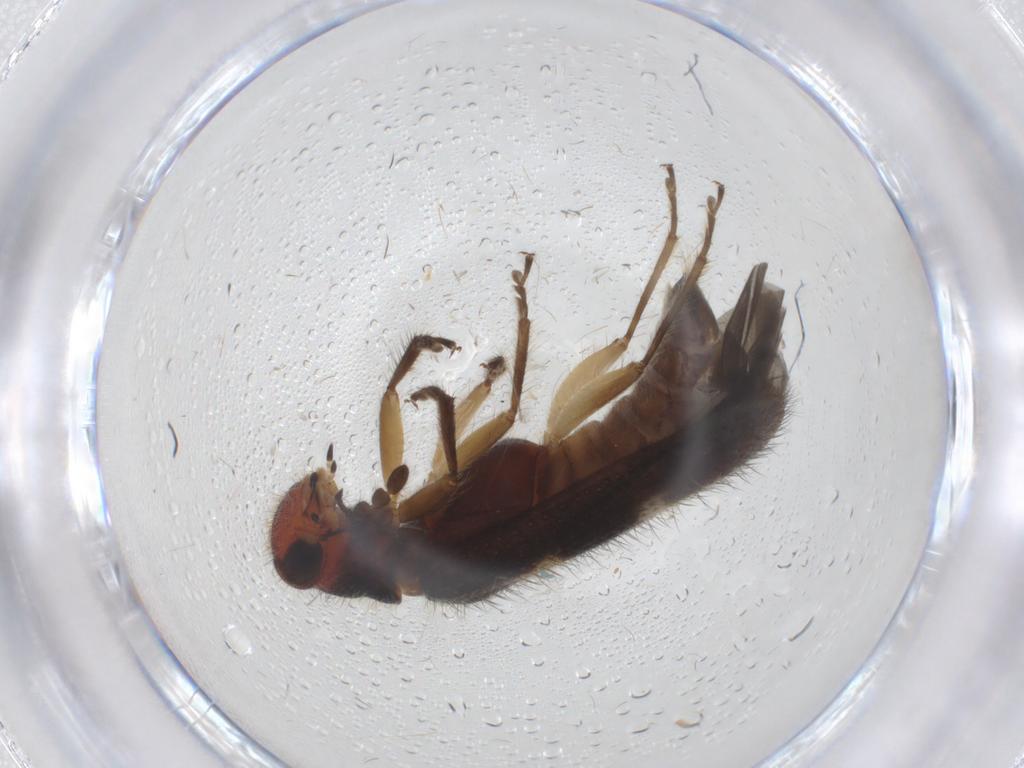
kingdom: Animalia
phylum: Arthropoda
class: Insecta
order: Coleoptera
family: Cleridae
